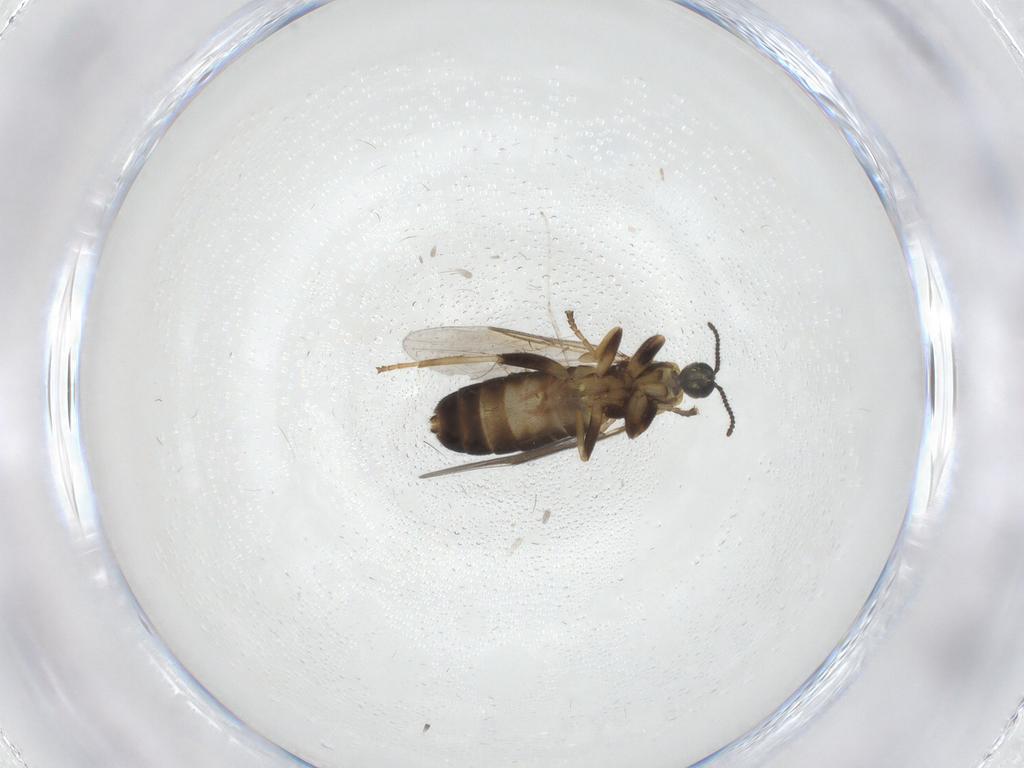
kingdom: Animalia
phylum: Arthropoda
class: Insecta
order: Diptera
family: Scatopsidae
